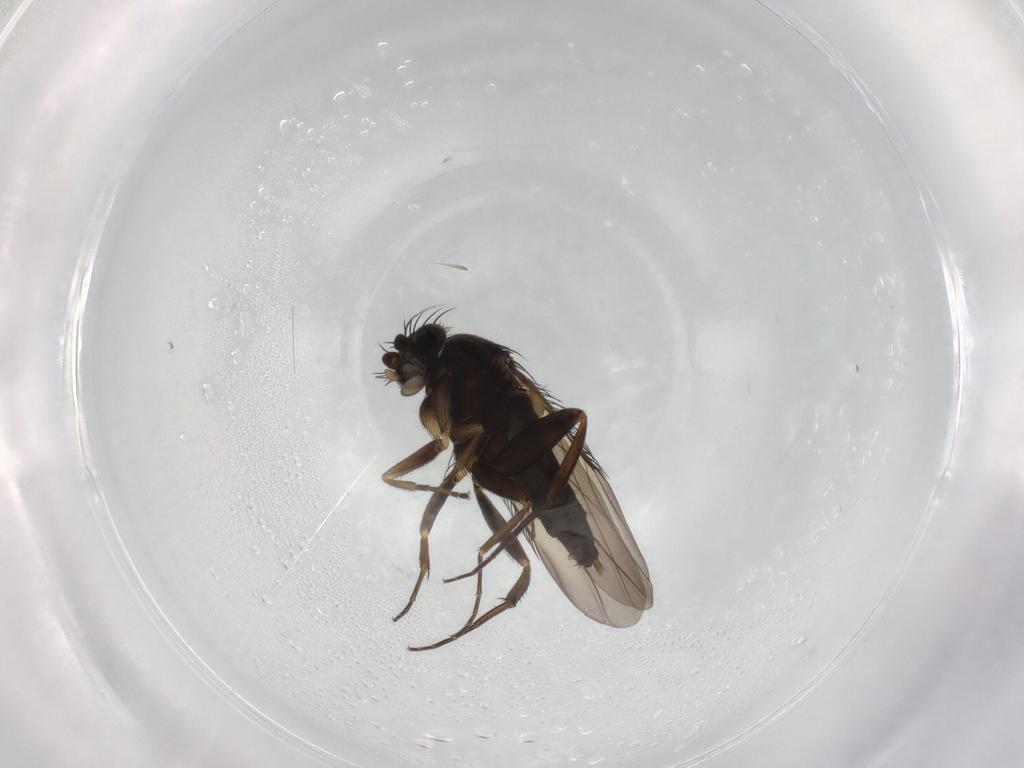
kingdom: Animalia
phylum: Arthropoda
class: Insecta
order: Diptera
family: Phoridae
